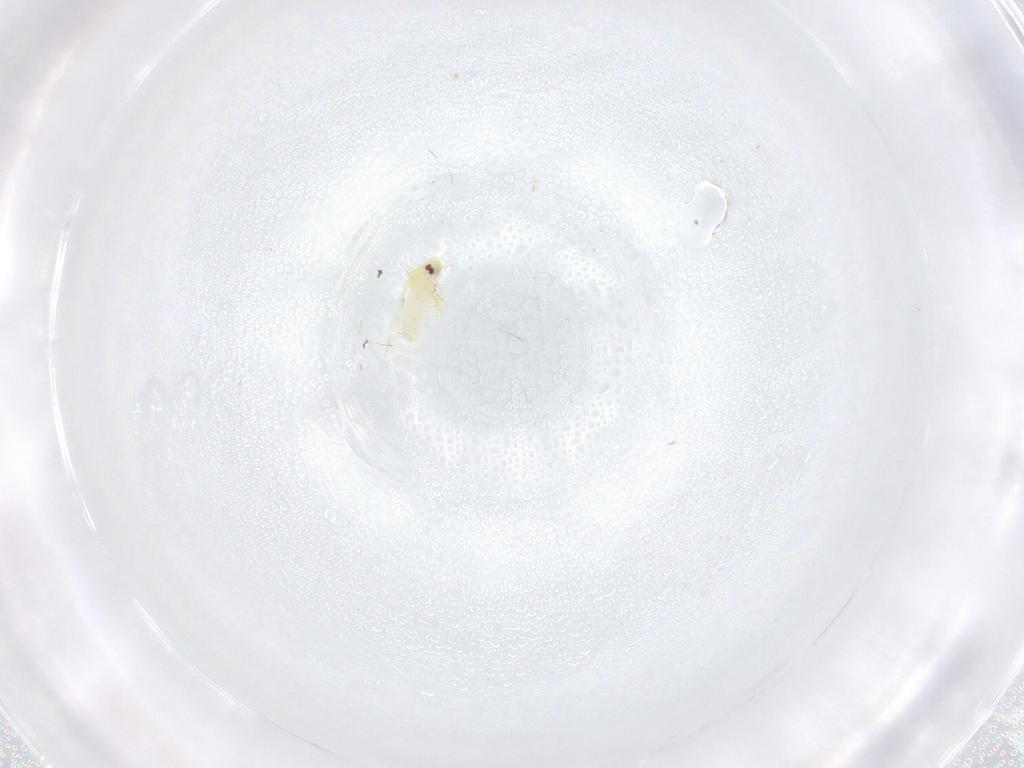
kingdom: Animalia
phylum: Arthropoda
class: Insecta
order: Hemiptera
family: Aleyrodidae
